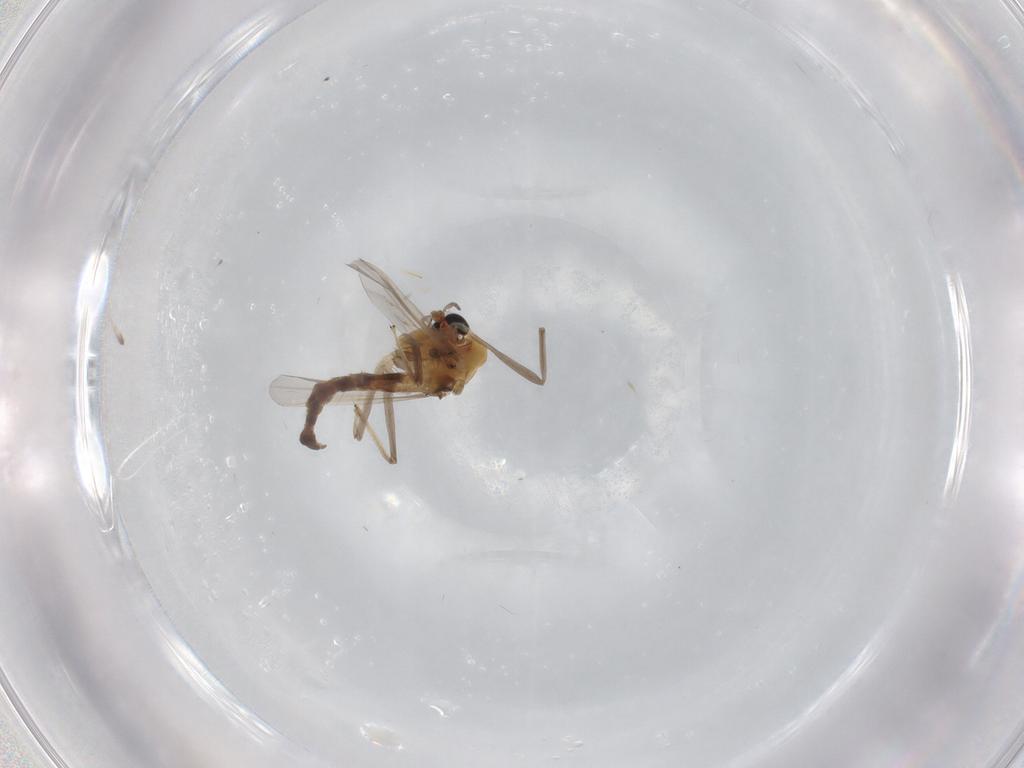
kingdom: Animalia
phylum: Arthropoda
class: Insecta
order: Diptera
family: Chironomidae
